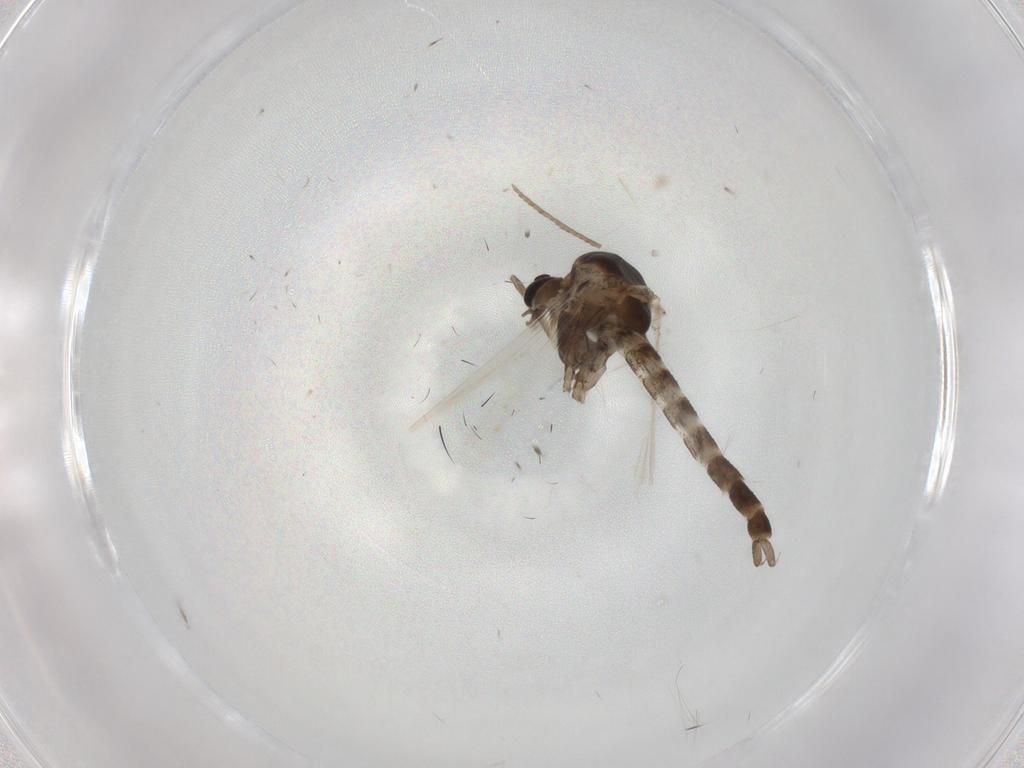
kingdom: Animalia
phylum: Arthropoda
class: Insecta
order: Diptera
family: Chironomidae
